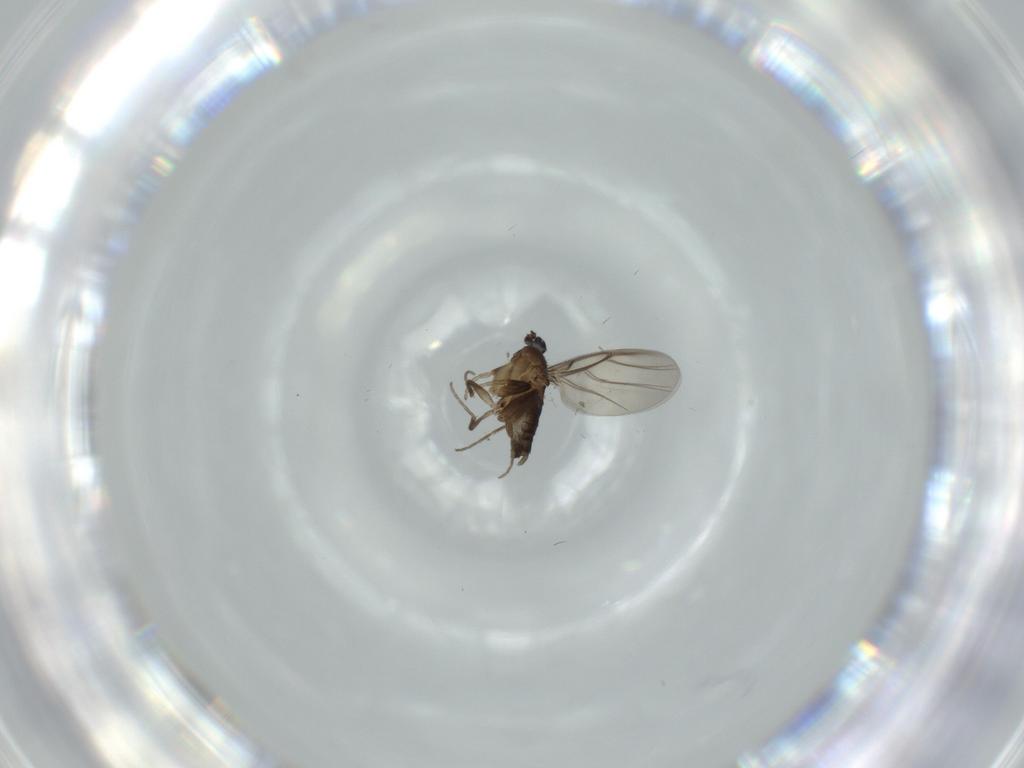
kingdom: Animalia
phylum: Arthropoda
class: Insecta
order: Diptera
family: Phoridae
